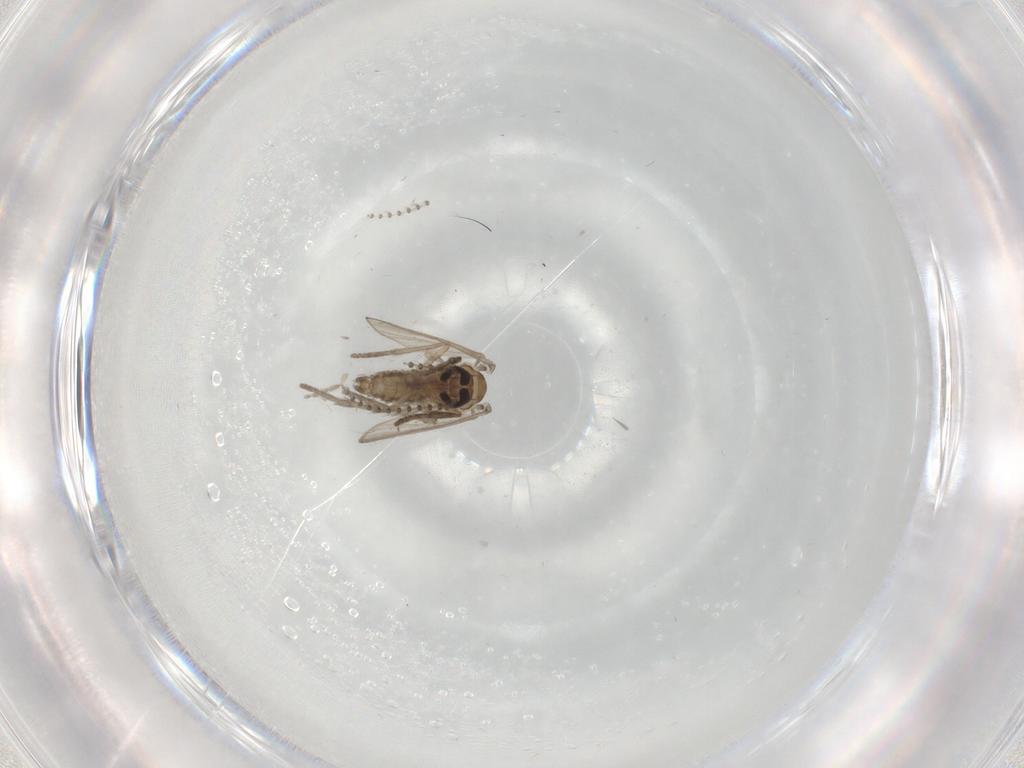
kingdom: Animalia
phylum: Arthropoda
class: Insecta
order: Diptera
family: Psychodidae
